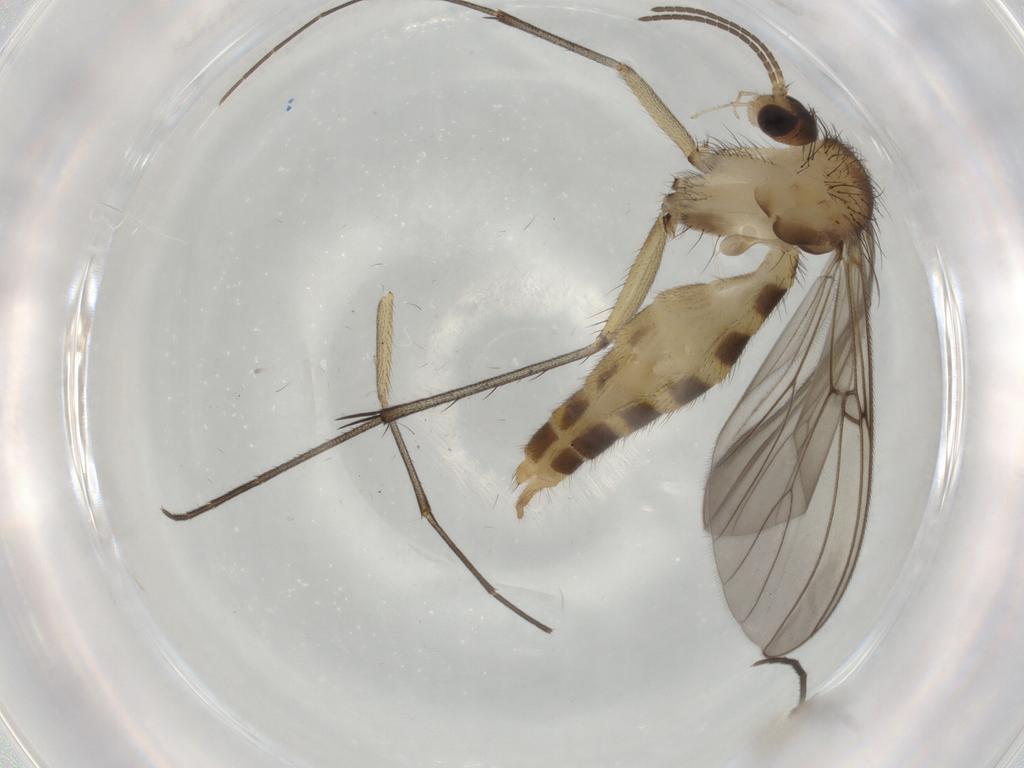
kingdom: Animalia
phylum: Arthropoda
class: Insecta
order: Diptera
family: Mycetophilidae
